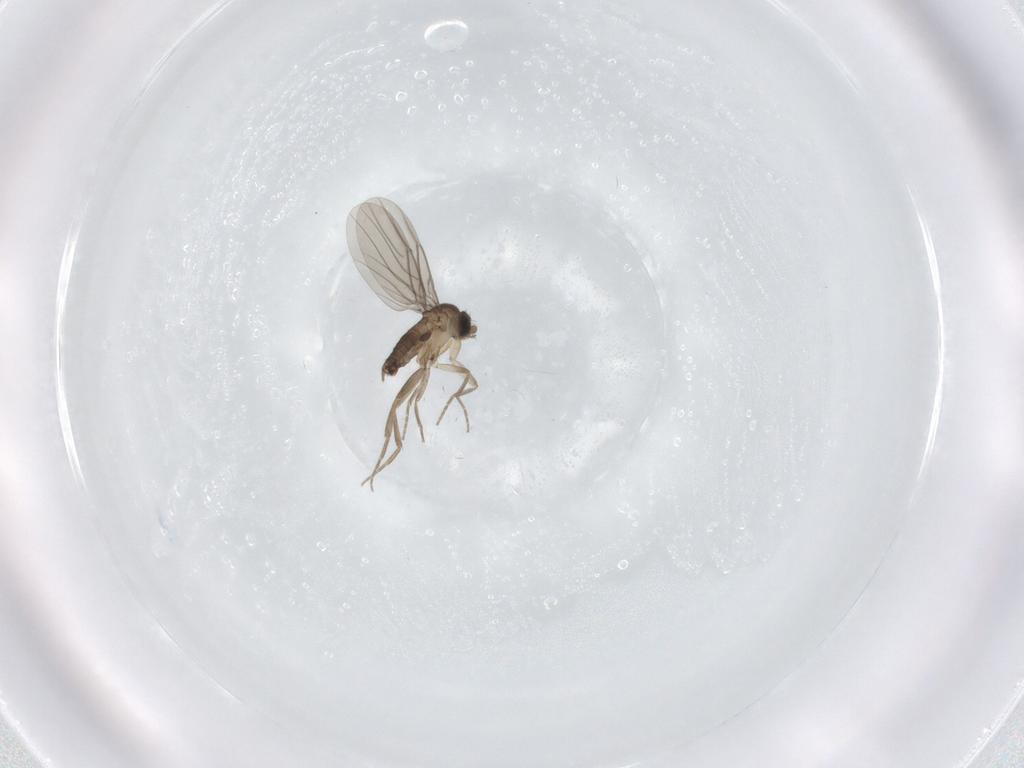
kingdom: Animalia
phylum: Arthropoda
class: Insecta
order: Diptera
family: Phoridae
